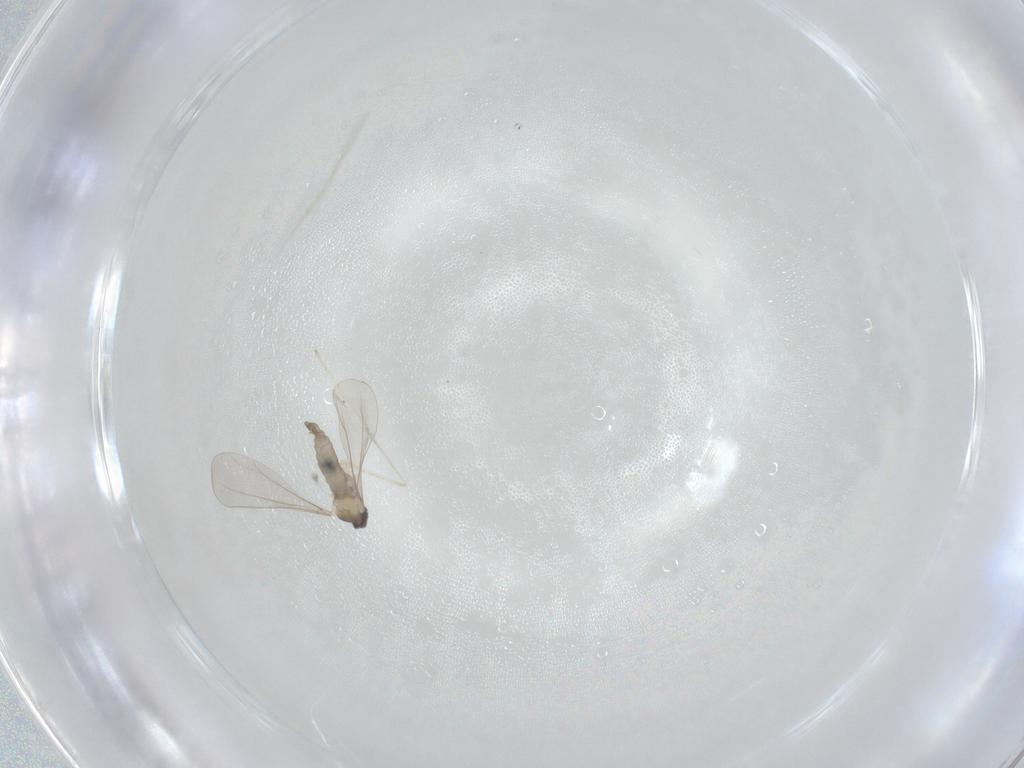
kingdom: Animalia
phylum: Arthropoda
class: Insecta
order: Diptera
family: Cecidomyiidae
